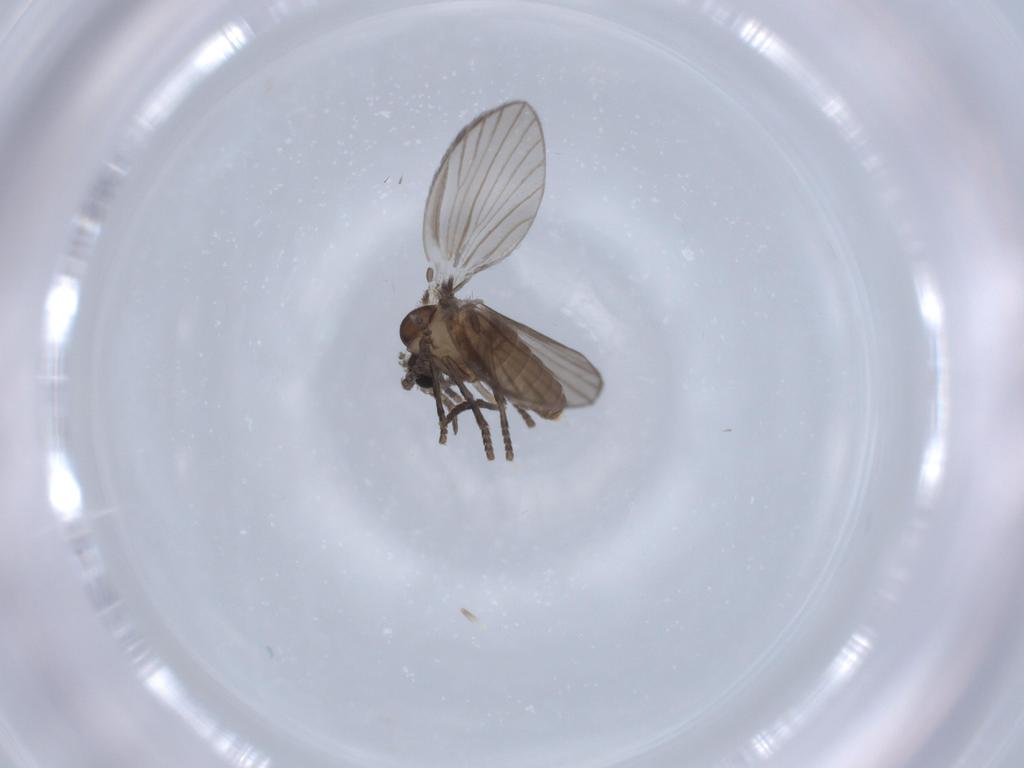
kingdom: Animalia
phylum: Arthropoda
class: Insecta
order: Diptera
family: Psychodidae
